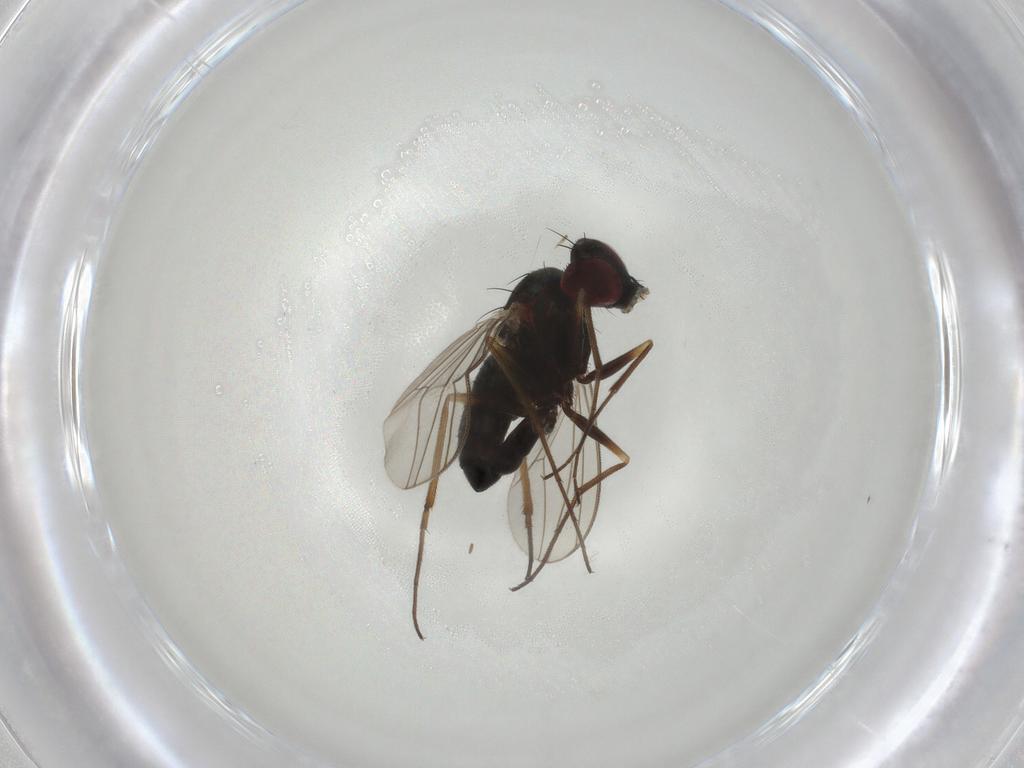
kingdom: Animalia
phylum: Arthropoda
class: Insecta
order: Diptera
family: Dolichopodidae
